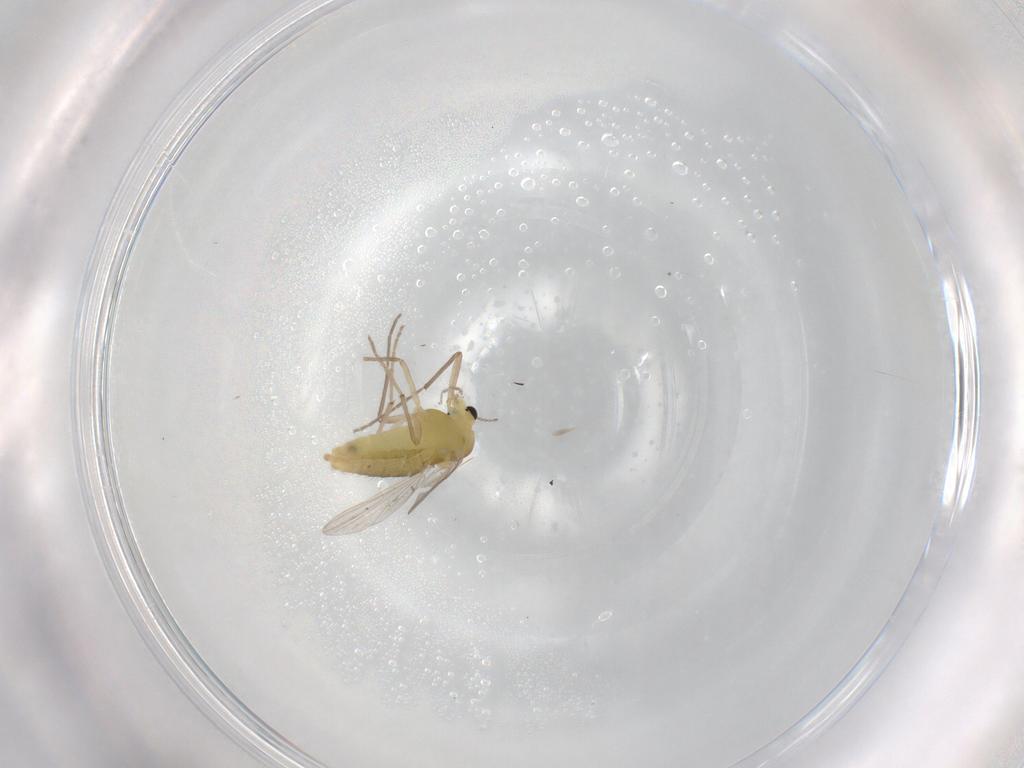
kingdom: Animalia
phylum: Arthropoda
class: Insecta
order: Diptera
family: Chironomidae
